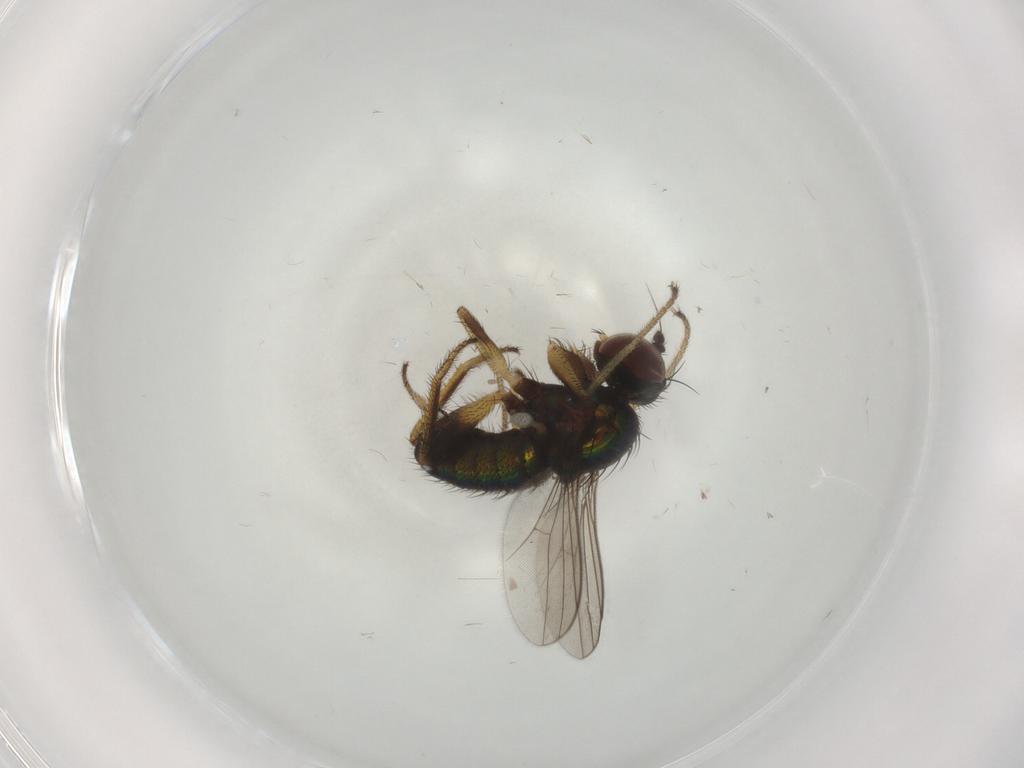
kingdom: Animalia
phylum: Arthropoda
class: Insecta
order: Diptera
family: Dolichopodidae
